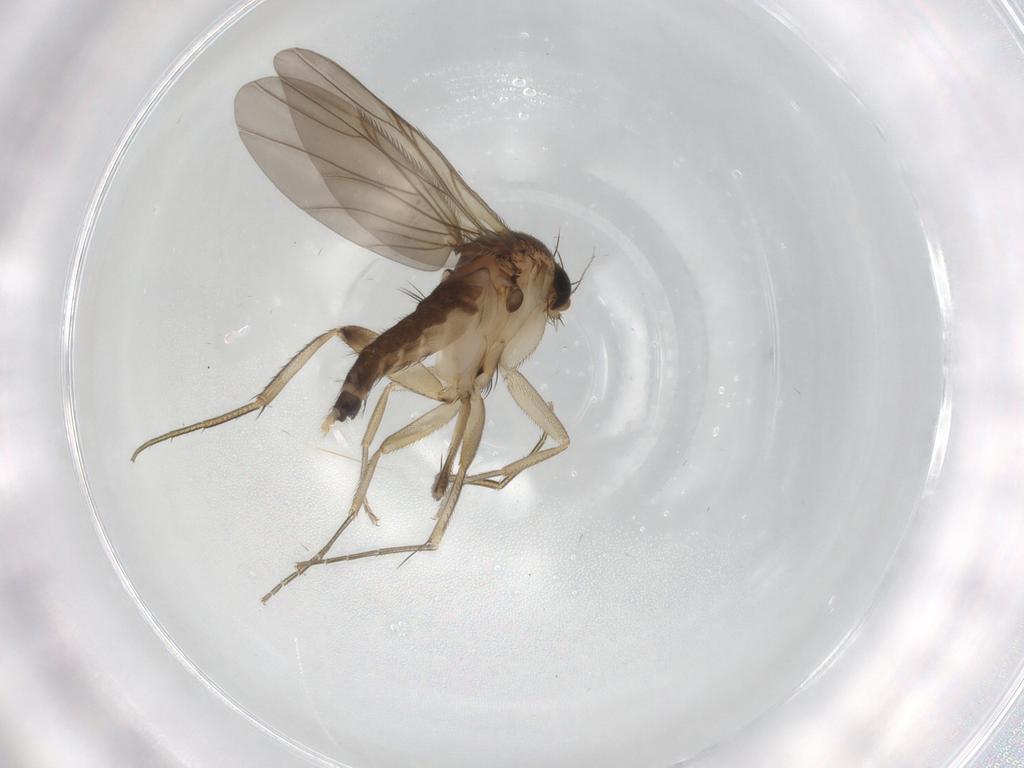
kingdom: Animalia
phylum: Arthropoda
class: Insecta
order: Diptera
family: Phoridae
